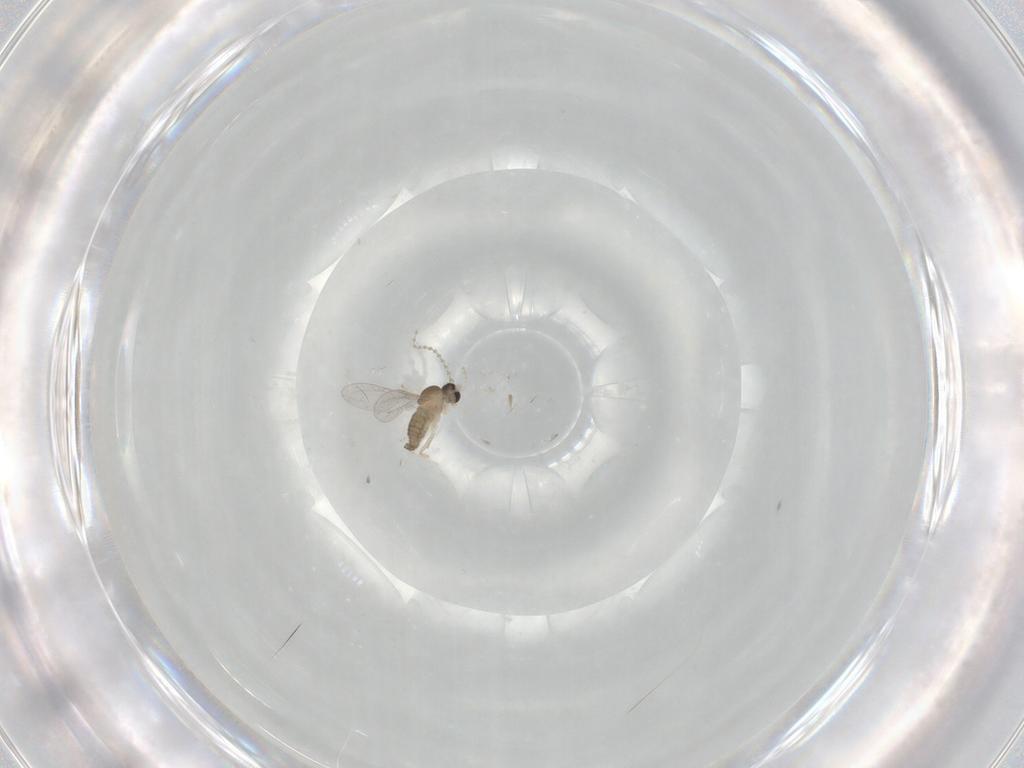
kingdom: Animalia
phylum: Arthropoda
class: Insecta
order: Diptera
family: Cecidomyiidae
